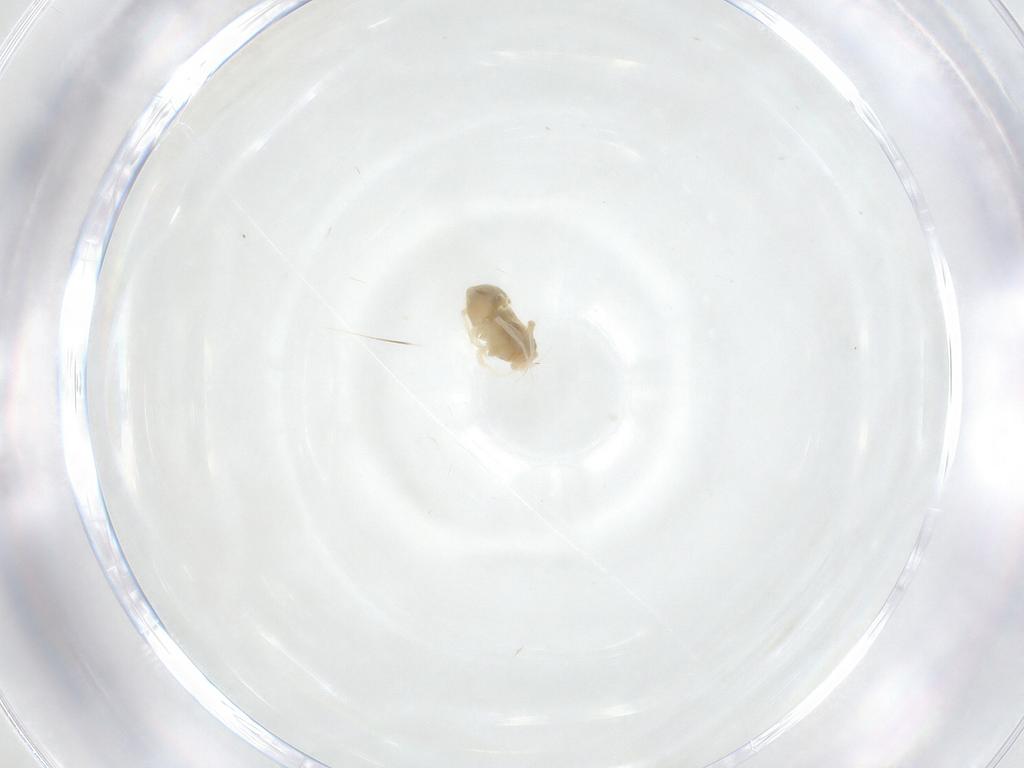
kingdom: Animalia
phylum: Arthropoda
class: Arachnida
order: Trombidiformes
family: Anystidae
